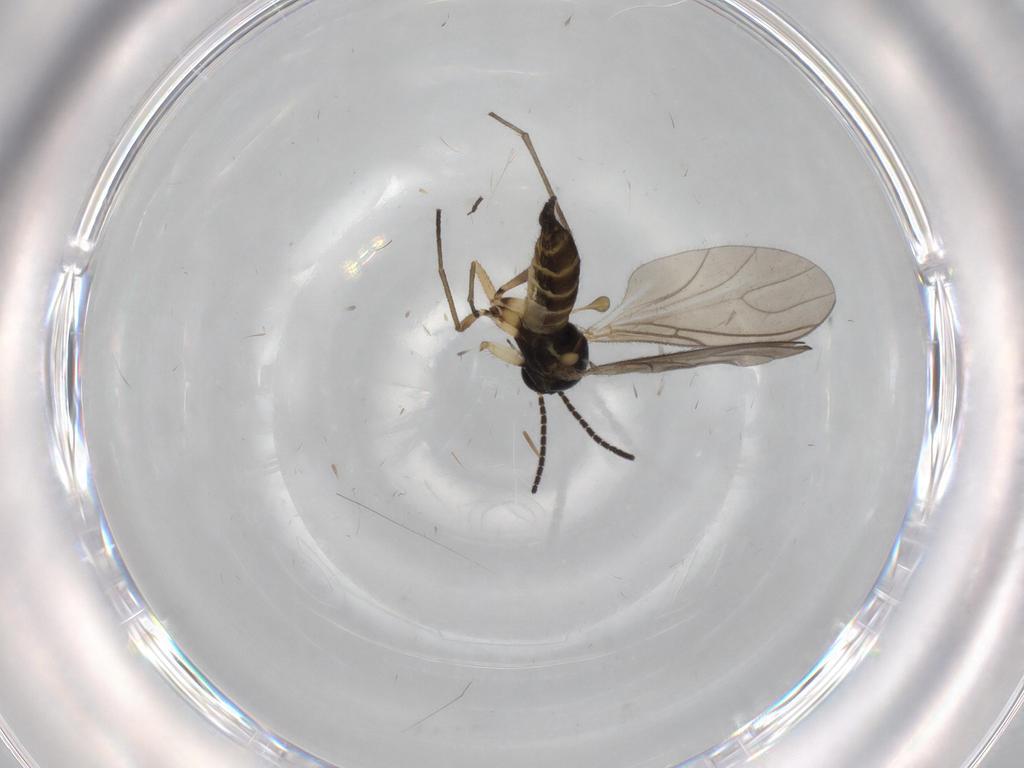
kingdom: Animalia
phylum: Arthropoda
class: Insecta
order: Diptera
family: Sciaridae
